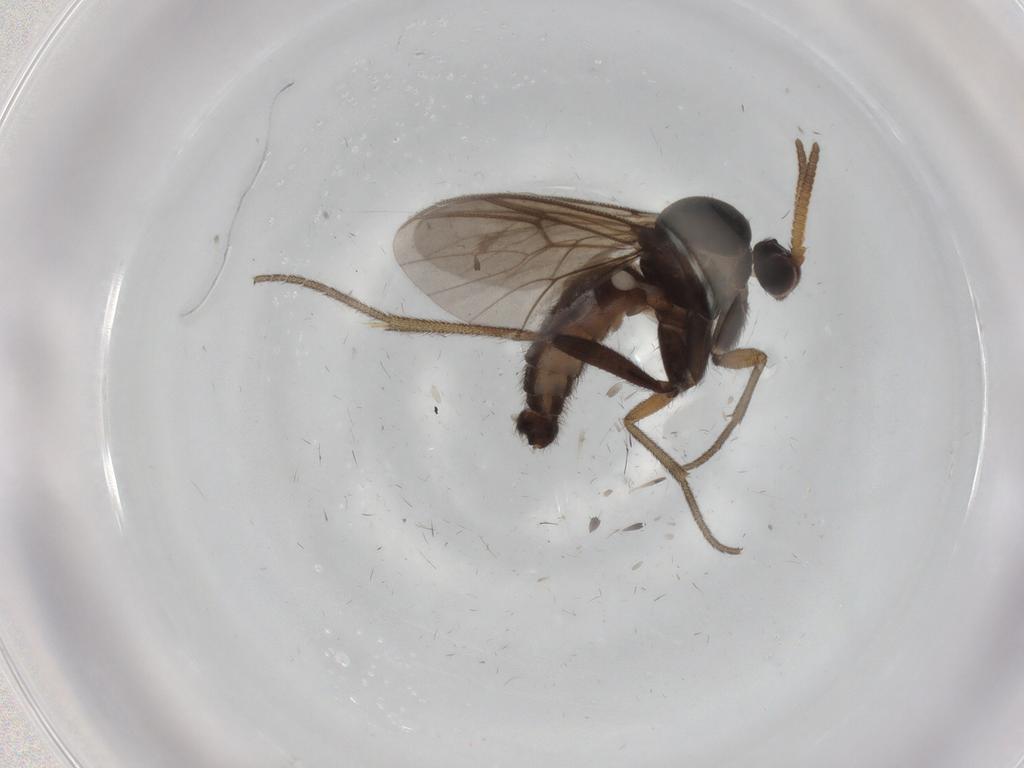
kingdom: Animalia
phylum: Arthropoda
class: Insecta
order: Diptera
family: Mycetophilidae
